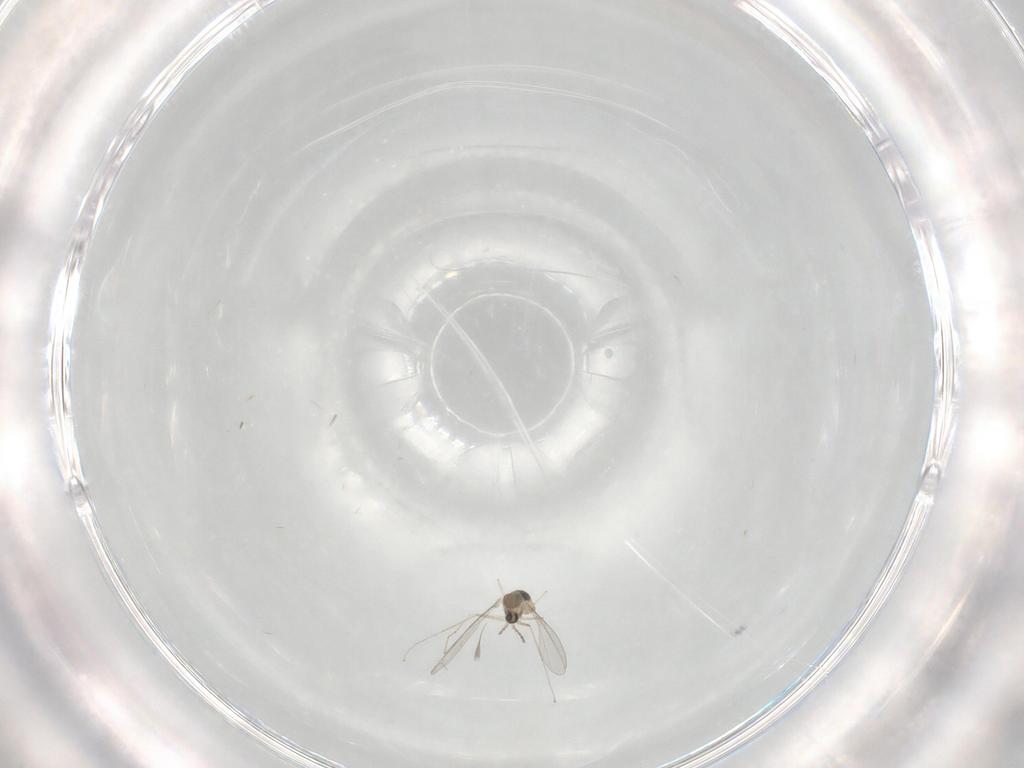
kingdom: Animalia
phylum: Arthropoda
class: Insecta
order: Diptera
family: Cecidomyiidae
